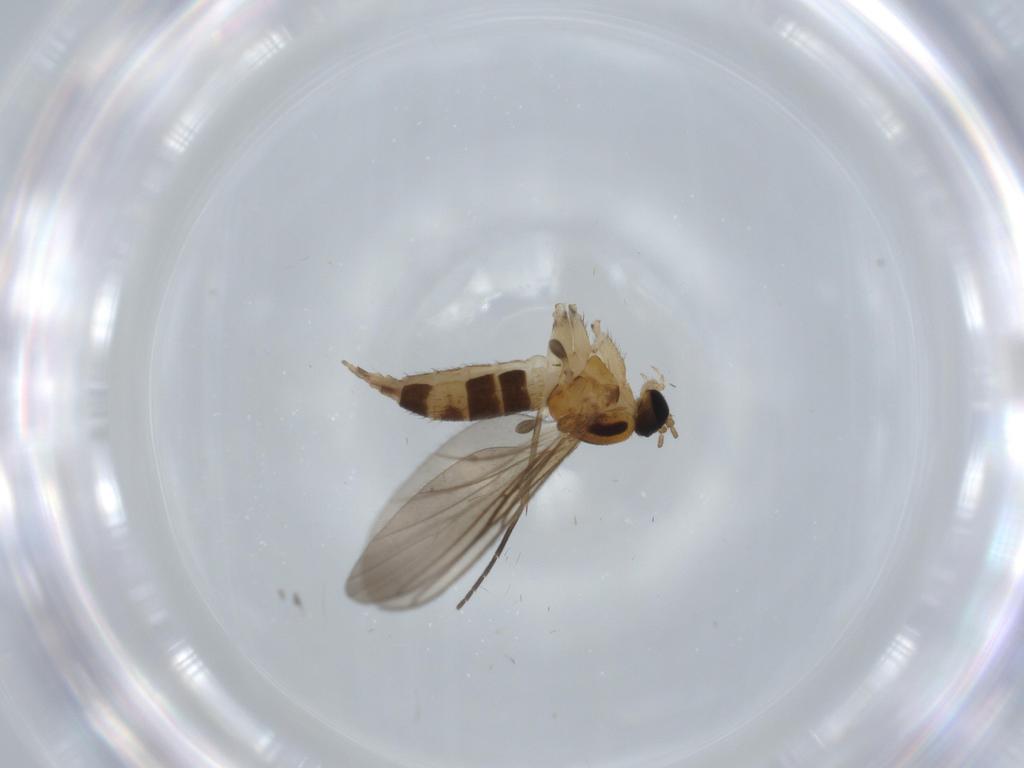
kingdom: Animalia
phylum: Arthropoda
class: Insecta
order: Diptera
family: Sciaridae
